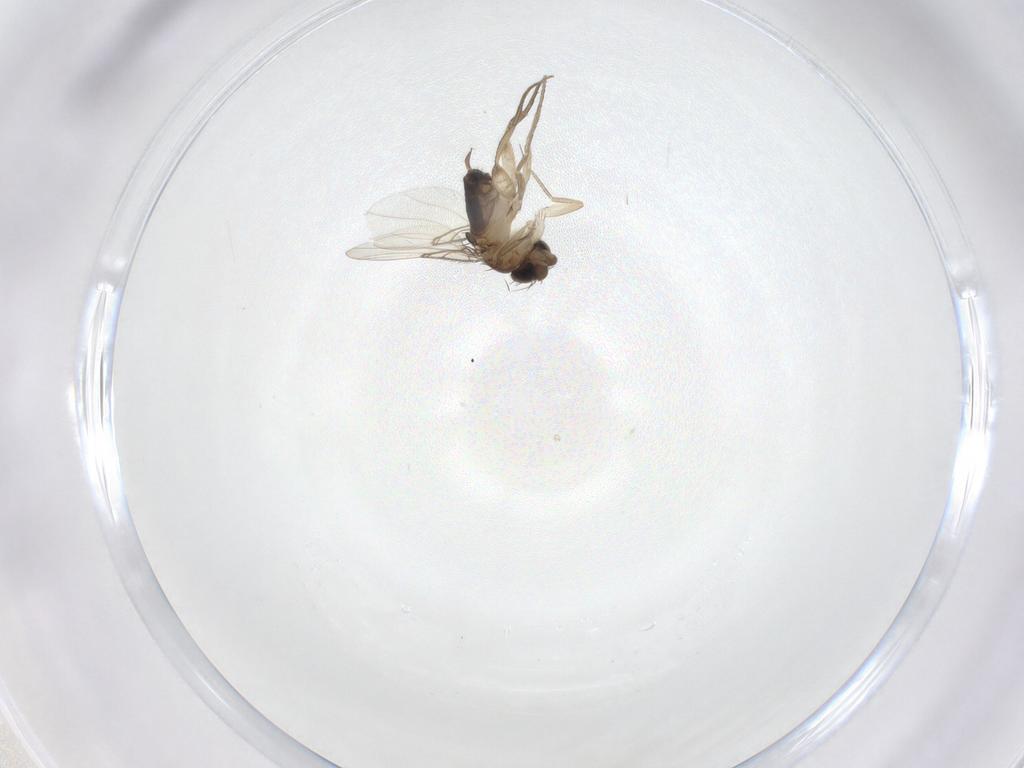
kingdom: Animalia
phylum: Arthropoda
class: Insecta
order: Diptera
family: Phoridae
